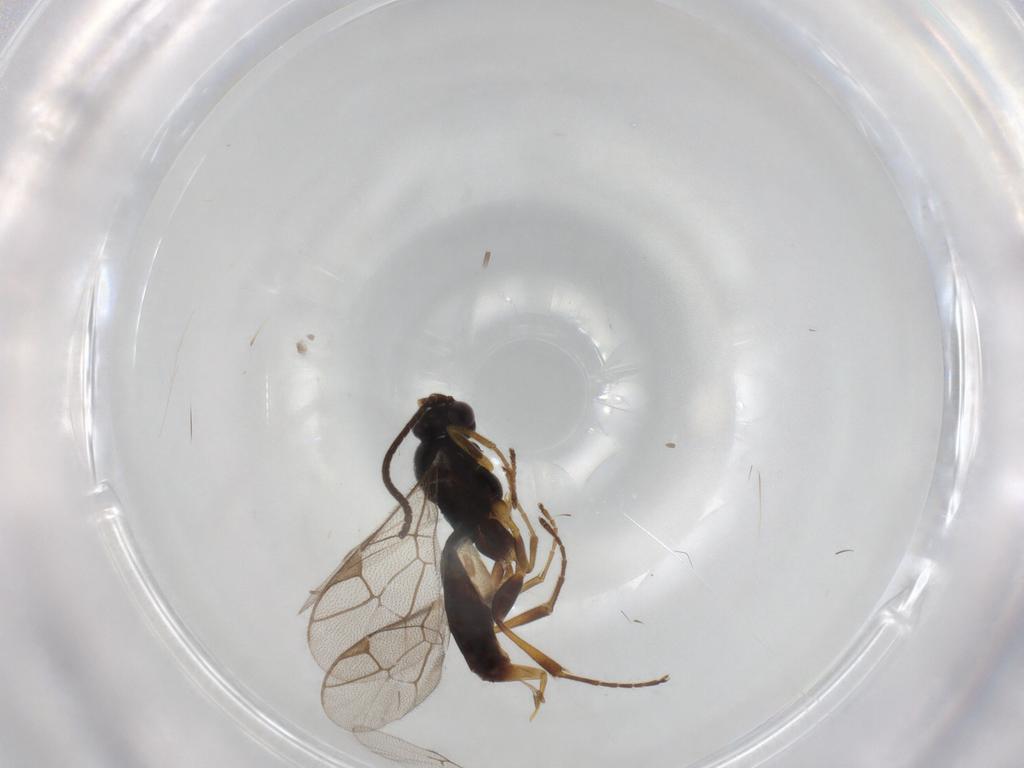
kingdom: Animalia
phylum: Arthropoda
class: Insecta
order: Hymenoptera
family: Ichneumonidae
